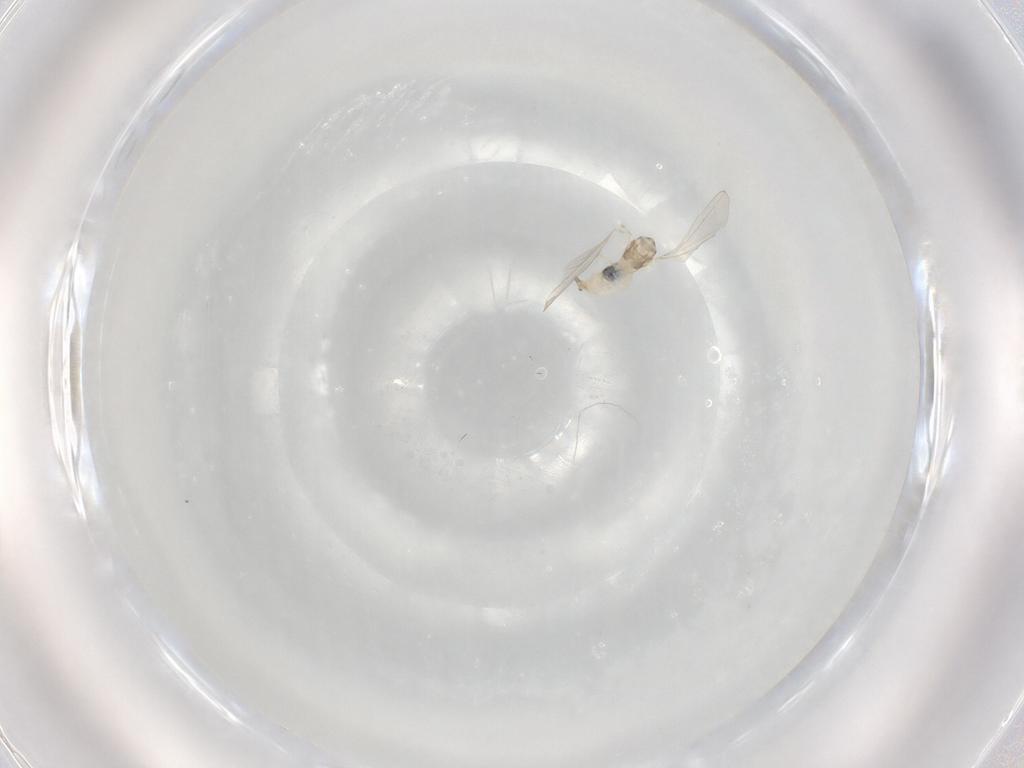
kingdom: Animalia
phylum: Arthropoda
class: Insecta
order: Diptera
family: Cecidomyiidae
